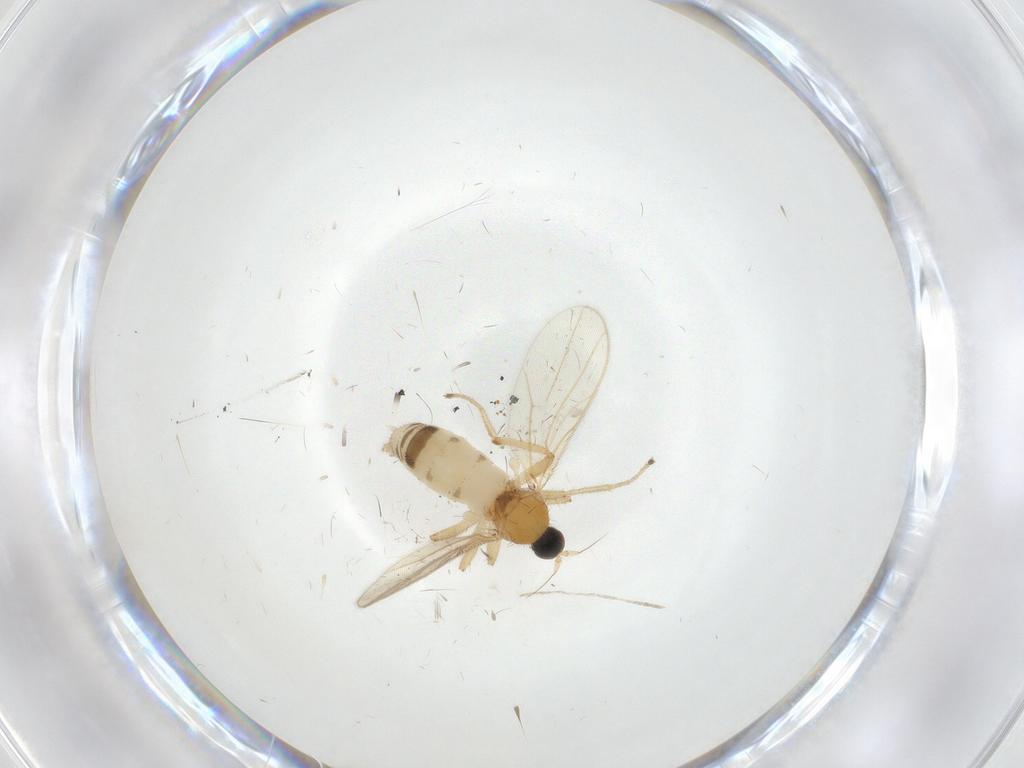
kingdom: Animalia
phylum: Arthropoda
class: Insecta
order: Diptera
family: Hybotidae
